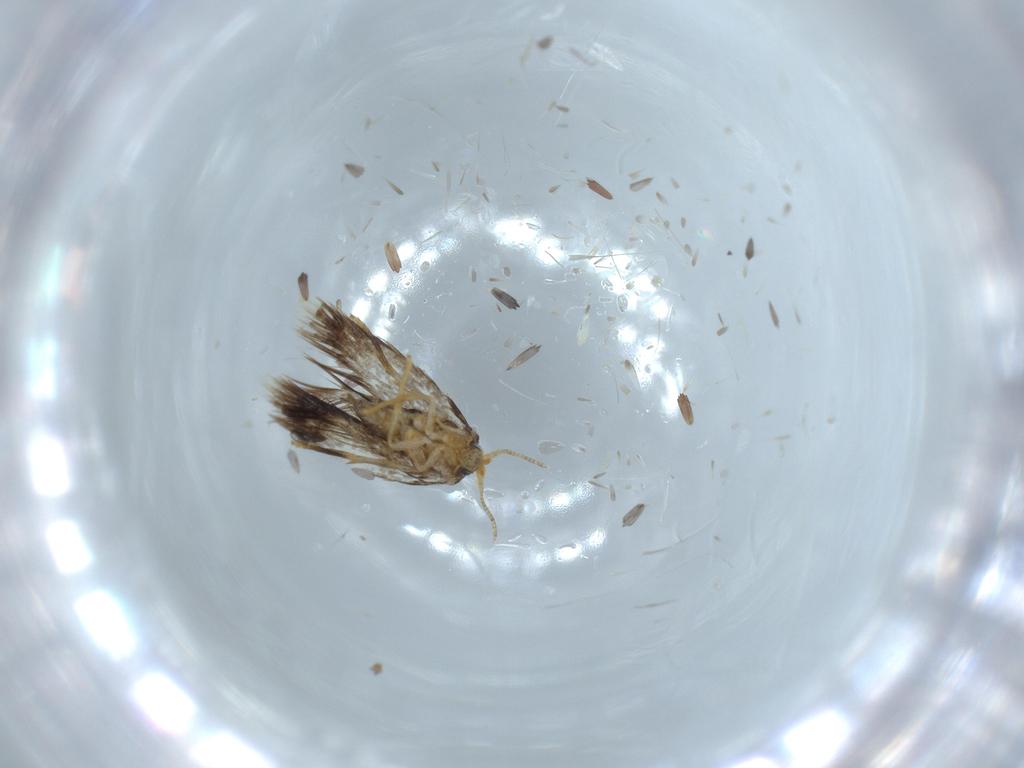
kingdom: Animalia
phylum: Arthropoda
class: Insecta
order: Lepidoptera
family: Nepticulidae
